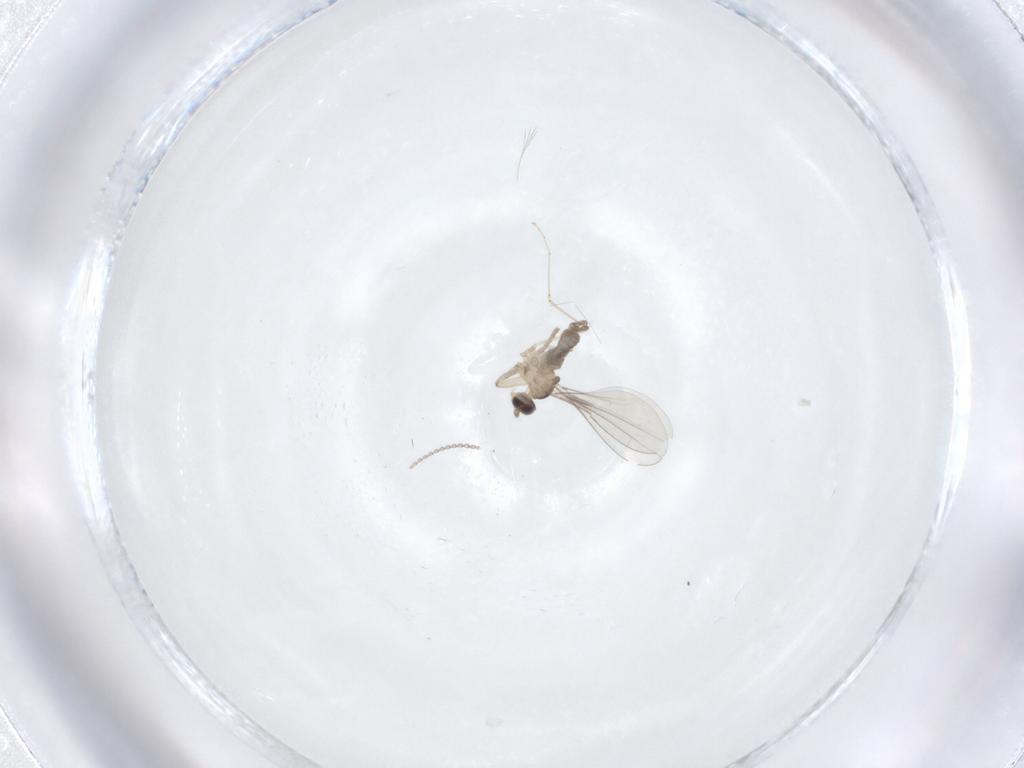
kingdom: Animalia
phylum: Arthropoda
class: Insecta
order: Diptera
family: Cecidomyiidae
